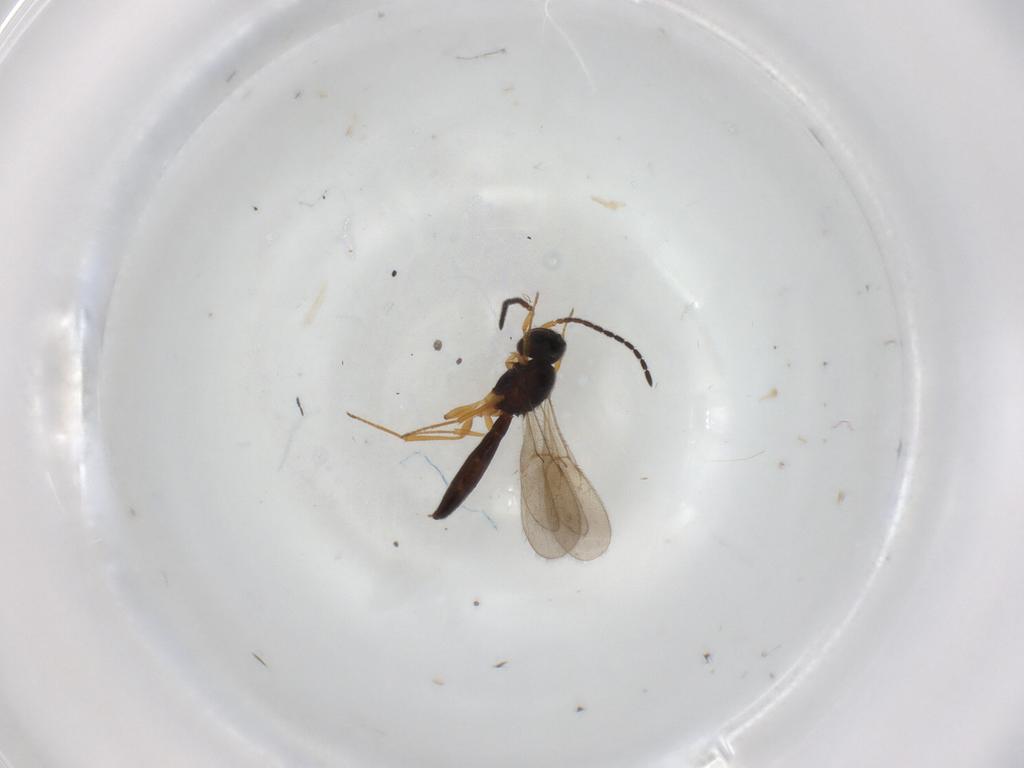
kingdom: Animalia
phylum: Arthropoda
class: Insecta
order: Hymenoptera
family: Scelionidae
